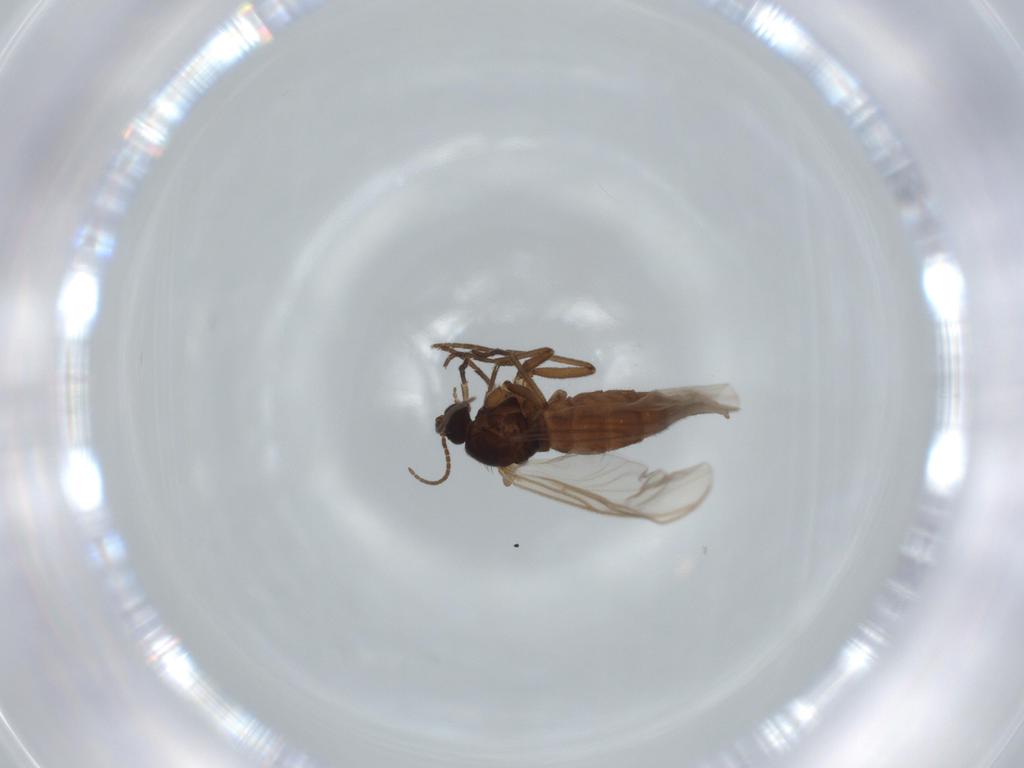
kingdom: Animalia
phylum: Arthropoda
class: Insecta
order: Diptera
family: Sciaridae
